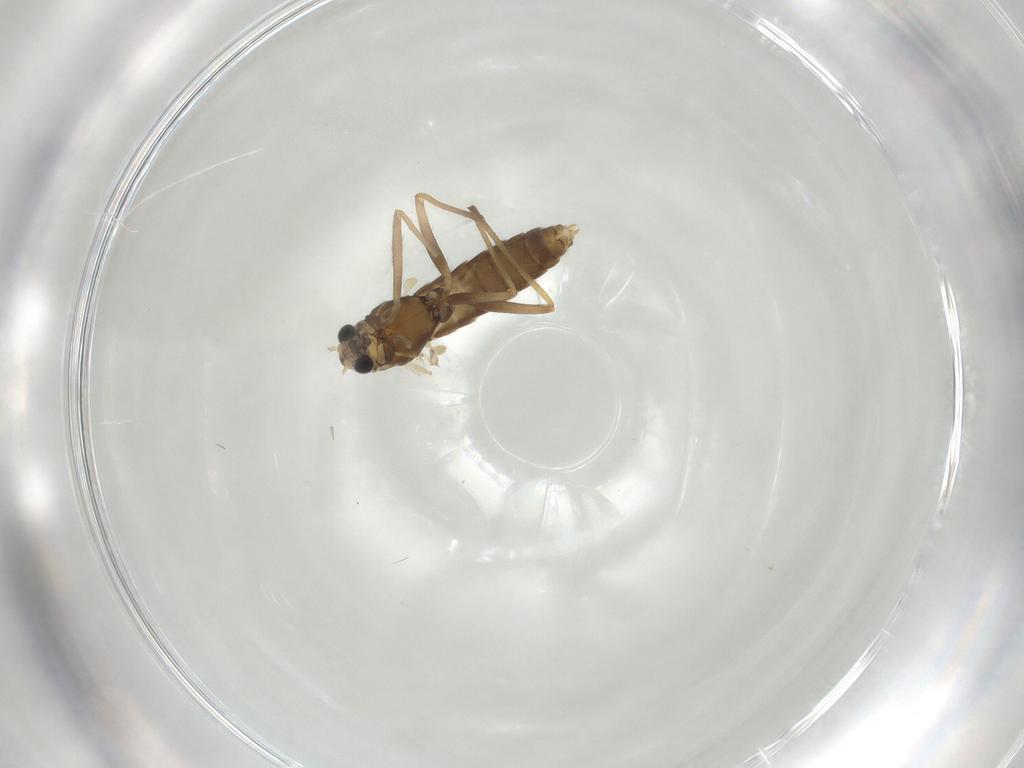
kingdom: Animalia
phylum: Arthropoda
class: Insecta
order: Diptera
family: Chironomidae
